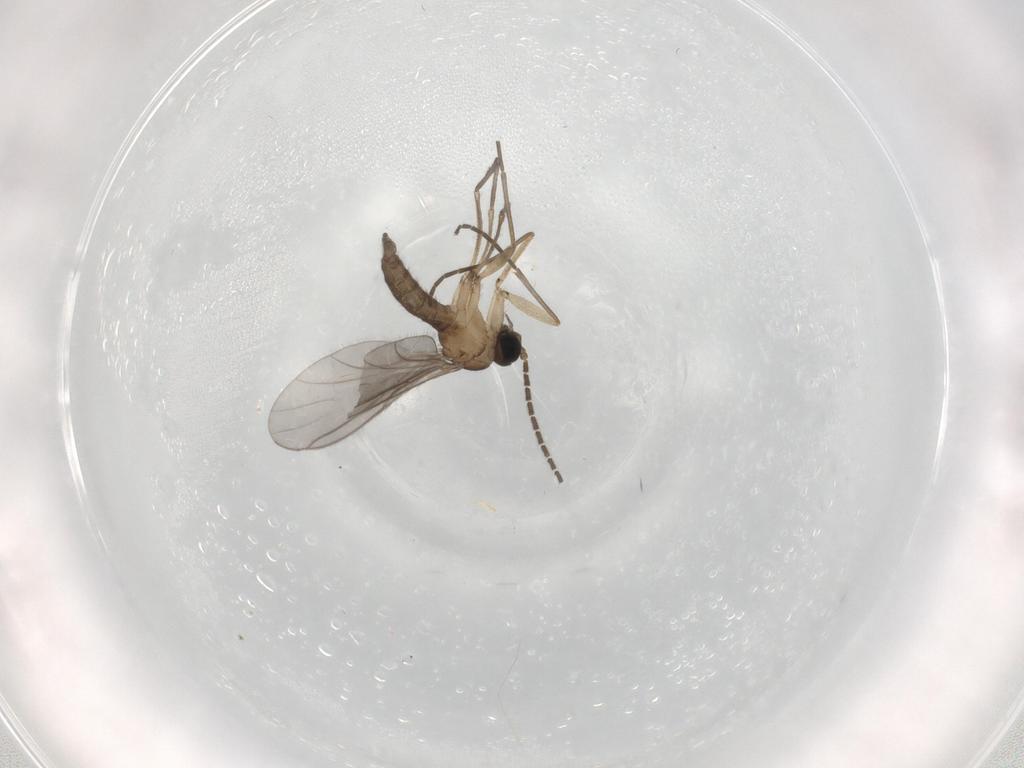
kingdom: Animalia
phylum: Arthropoda
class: Insecta
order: Diptera
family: Sciaridae
